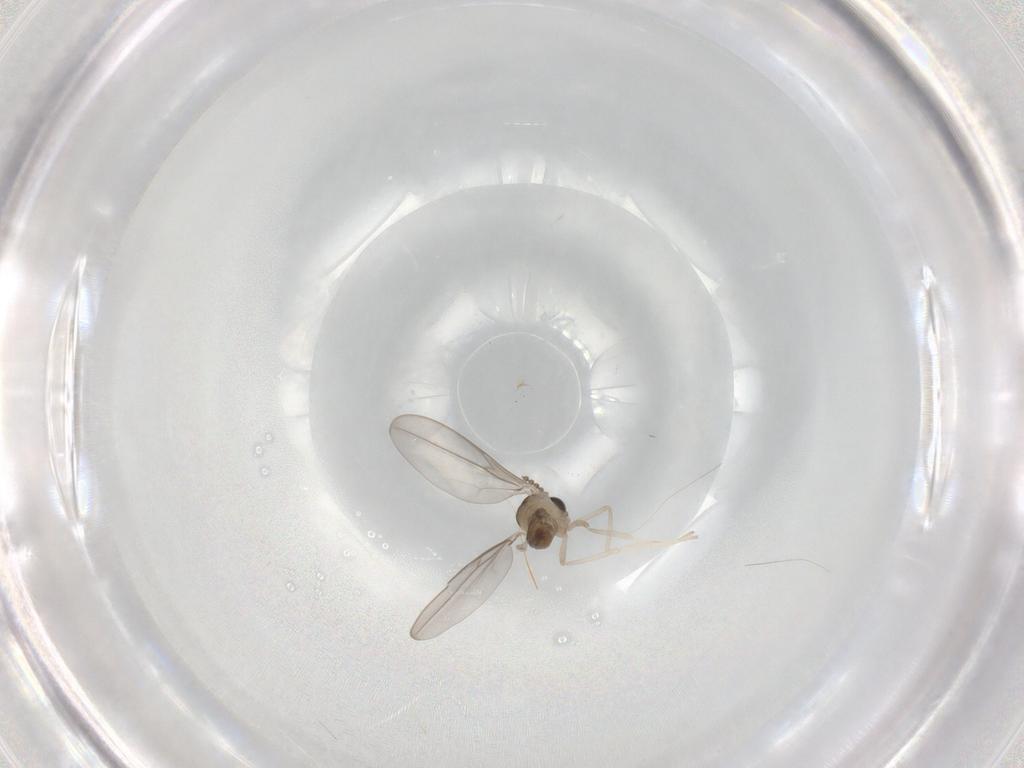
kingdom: Animalia
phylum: Arthropoda
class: Insecta
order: Diptera
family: Cecidomyiidae
